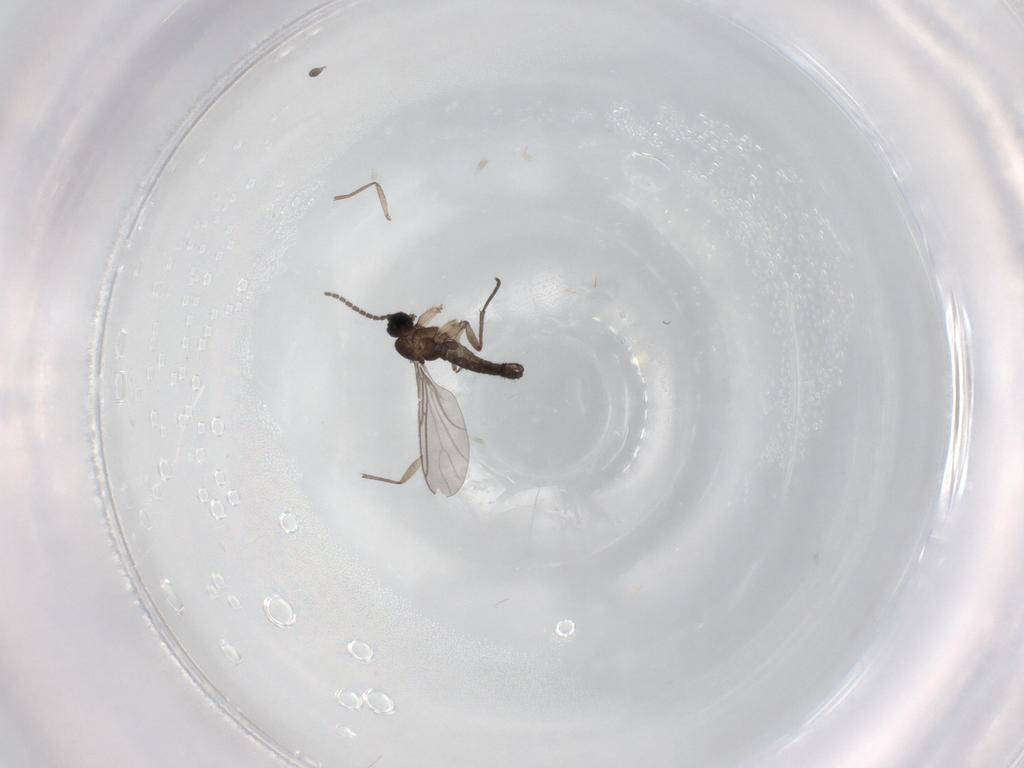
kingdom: Animalia
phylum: Arthropoda
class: Insecta
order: Diptera
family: Sciaridae
